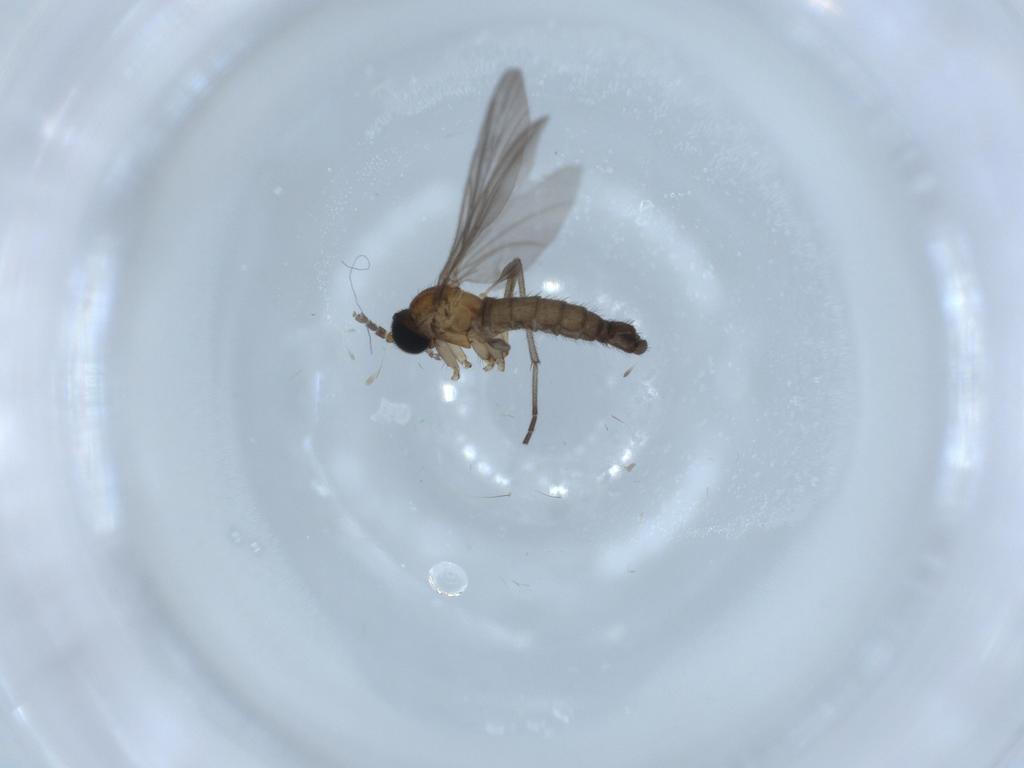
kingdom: Animalia
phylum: Arthropoda
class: Insecta
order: Diptera
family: Sciaridae
